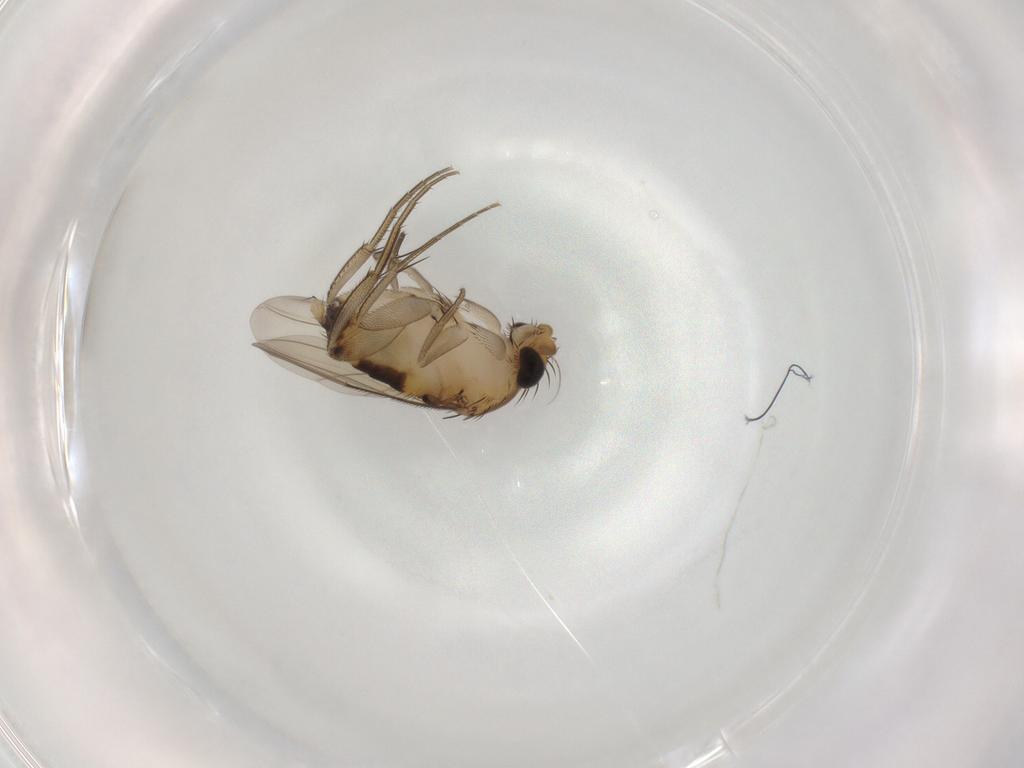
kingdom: Animalia
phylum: Arthropoda
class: Insecta
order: Diptera
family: Phoridae
